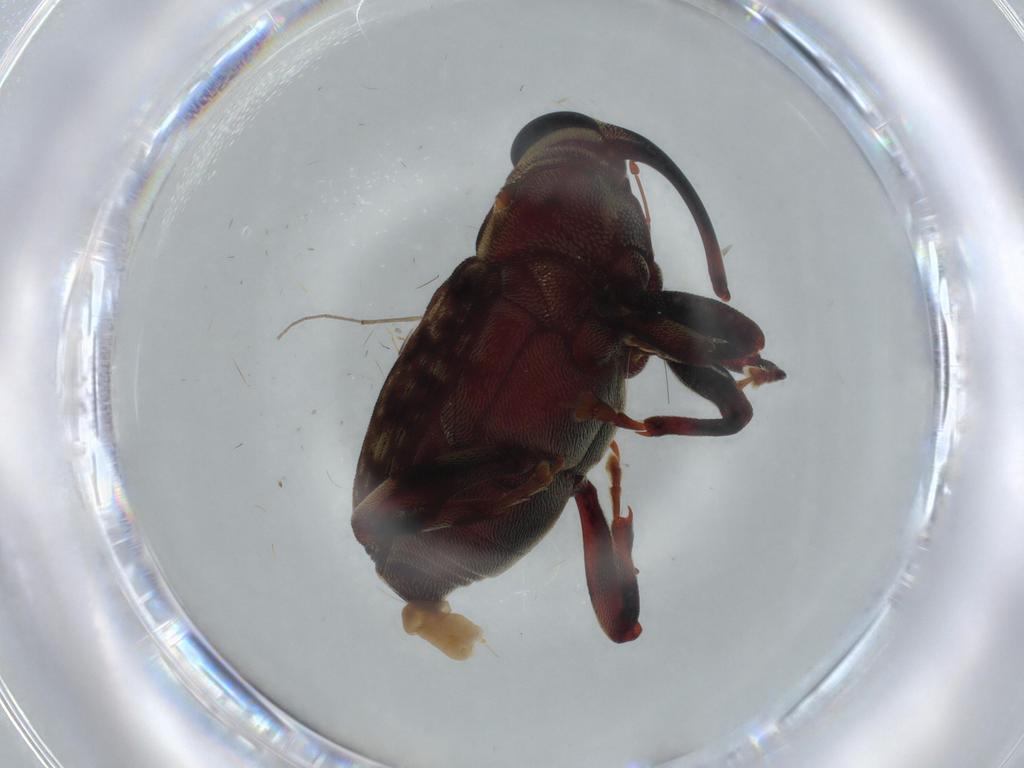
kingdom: Animalia
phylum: Arthropoda
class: Insecta
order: Coleoptera
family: Curculionidae
